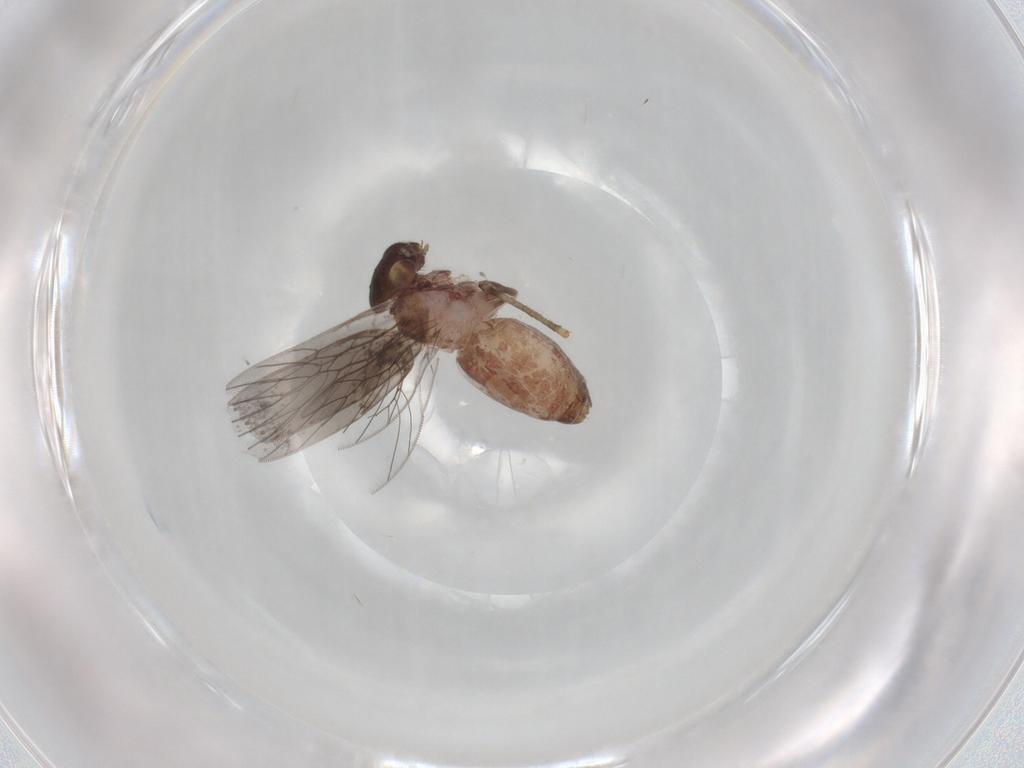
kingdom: Animalia
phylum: Arthropoda
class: Insecta
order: Psocodea
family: Lepidopsocidae
